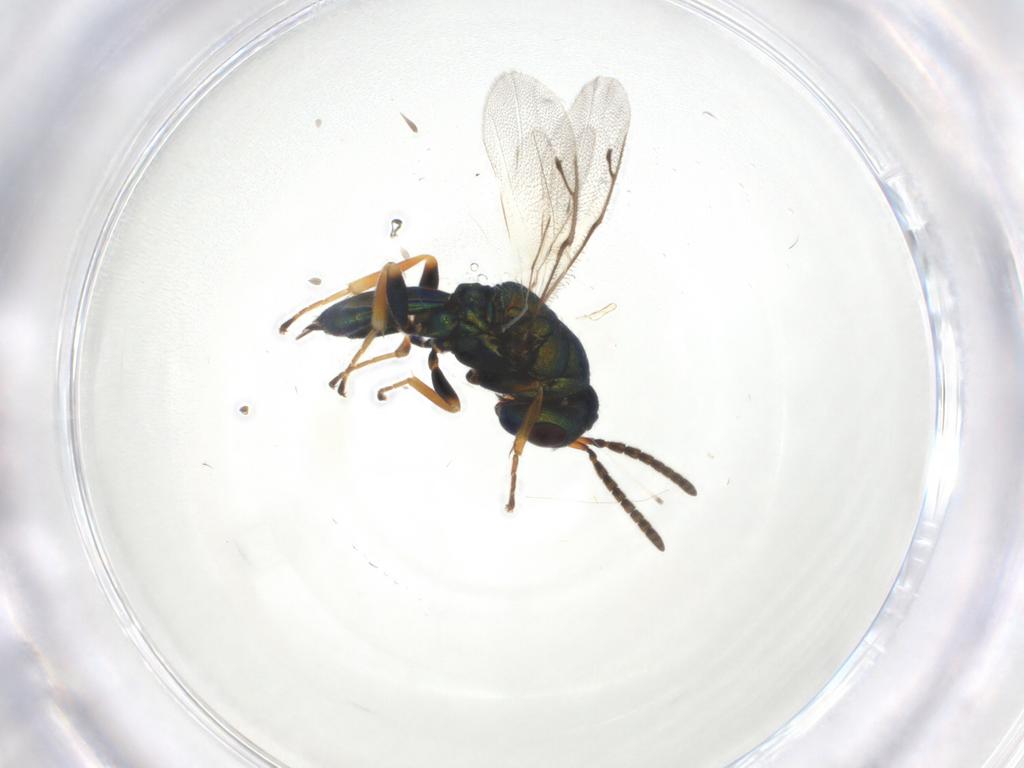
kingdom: Animalia
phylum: Arthropoda
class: Insecta
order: Hymenoptera
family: Pteromalidae
